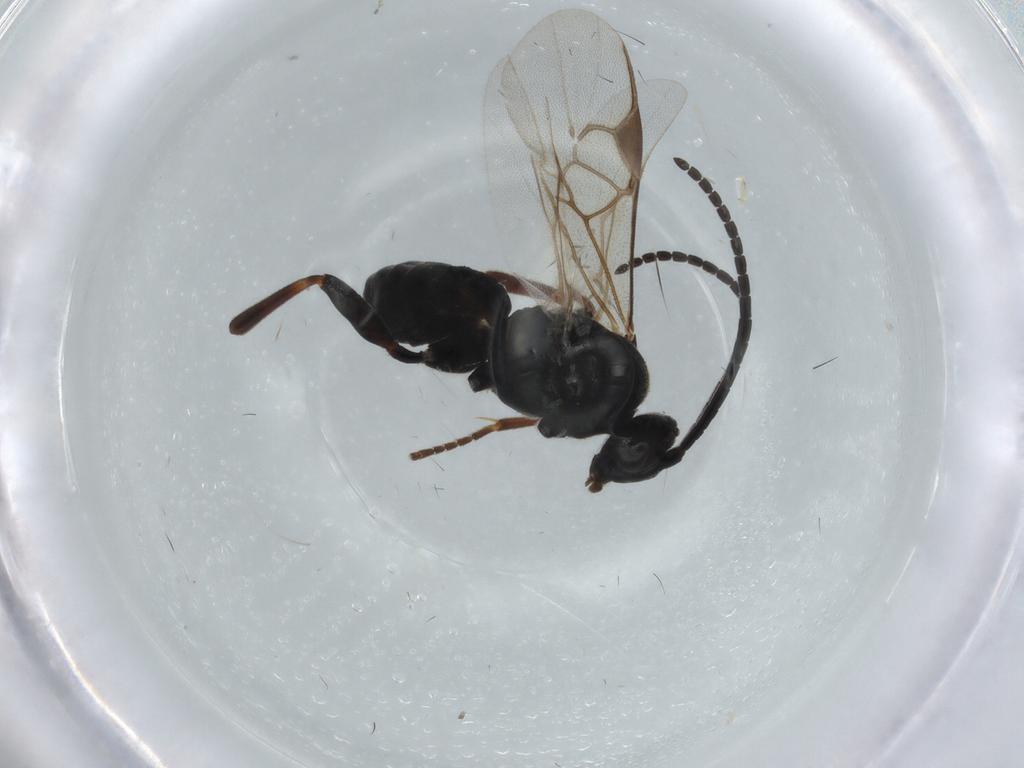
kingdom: Animalia
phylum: Arthropoda
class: Insecta
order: Hymenoptera
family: Braconidae
